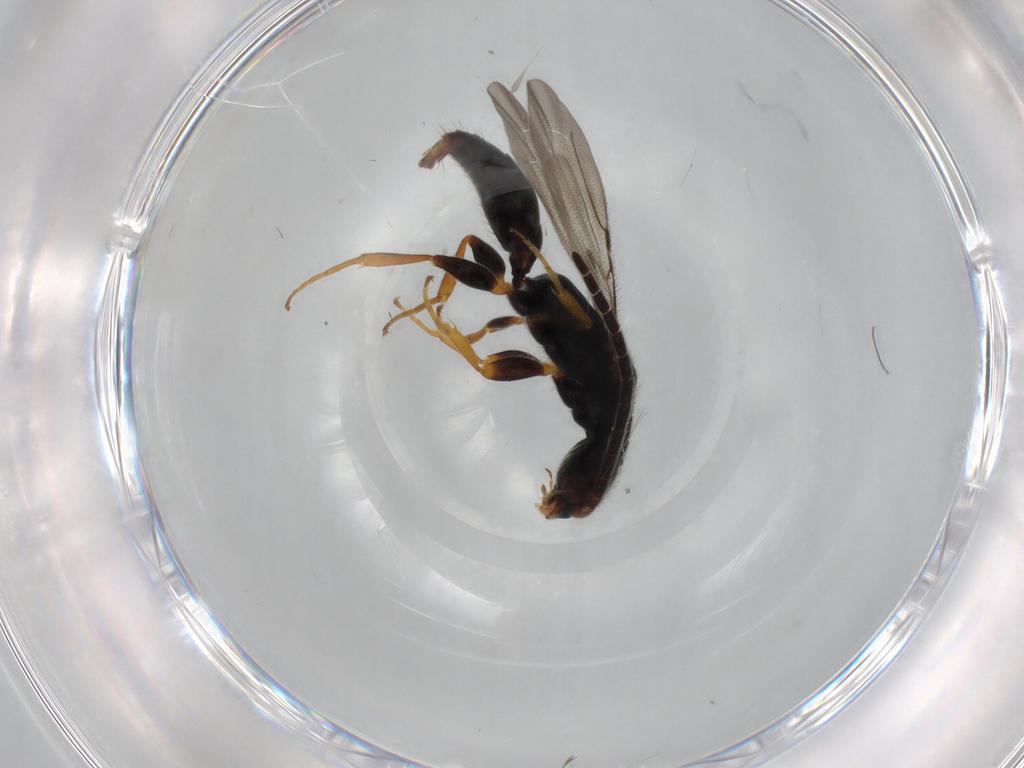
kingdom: Animalia
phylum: Arthropoda
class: Insecta
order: Hymenoptera
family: Bethylidae
